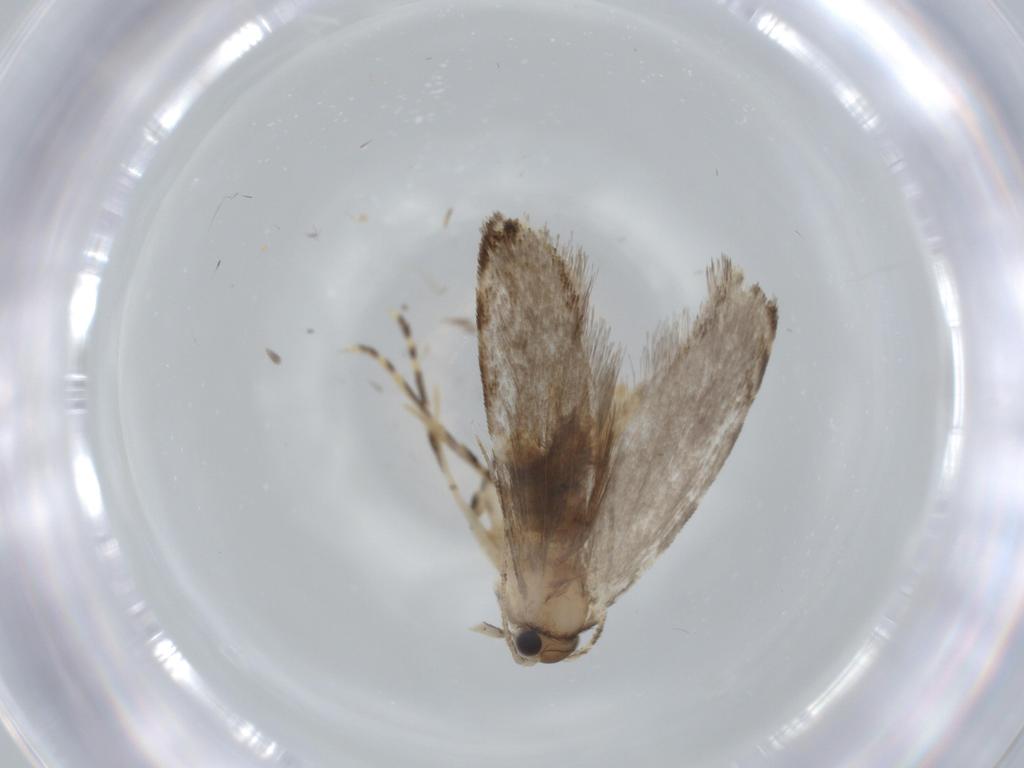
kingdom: Animalia
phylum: Arthropoda
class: Insecta
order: Lepidoptera
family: Tineidae
